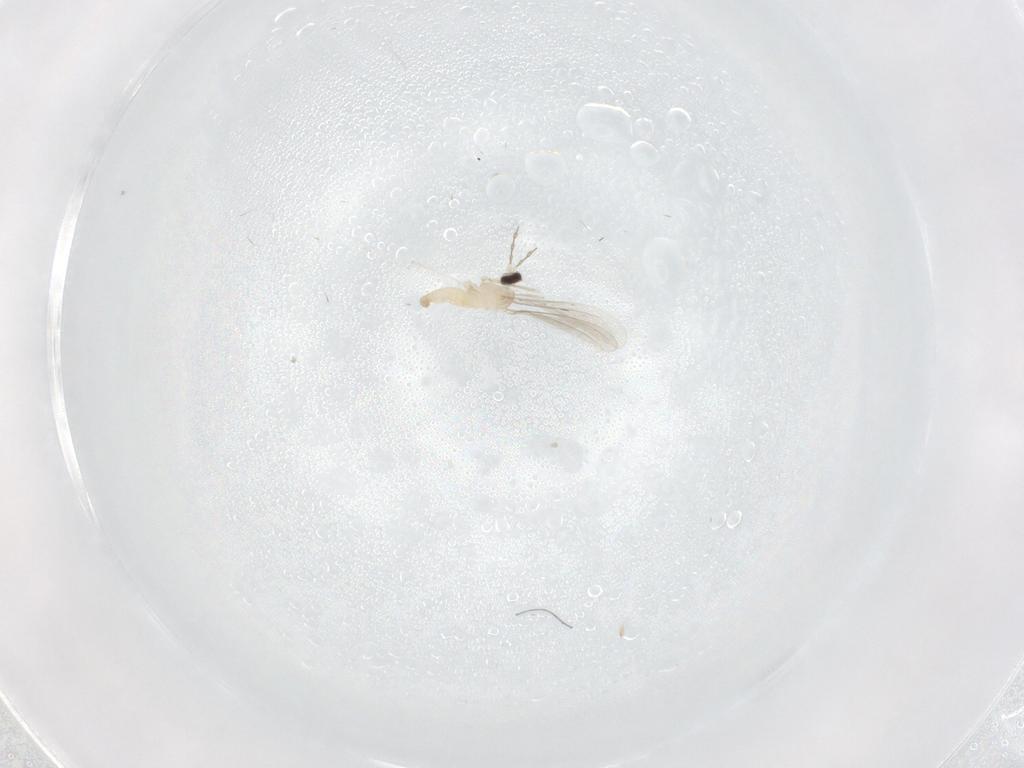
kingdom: Animalia
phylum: Arthropoda
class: Insecta
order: Diptera
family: Cecidomyiidae
